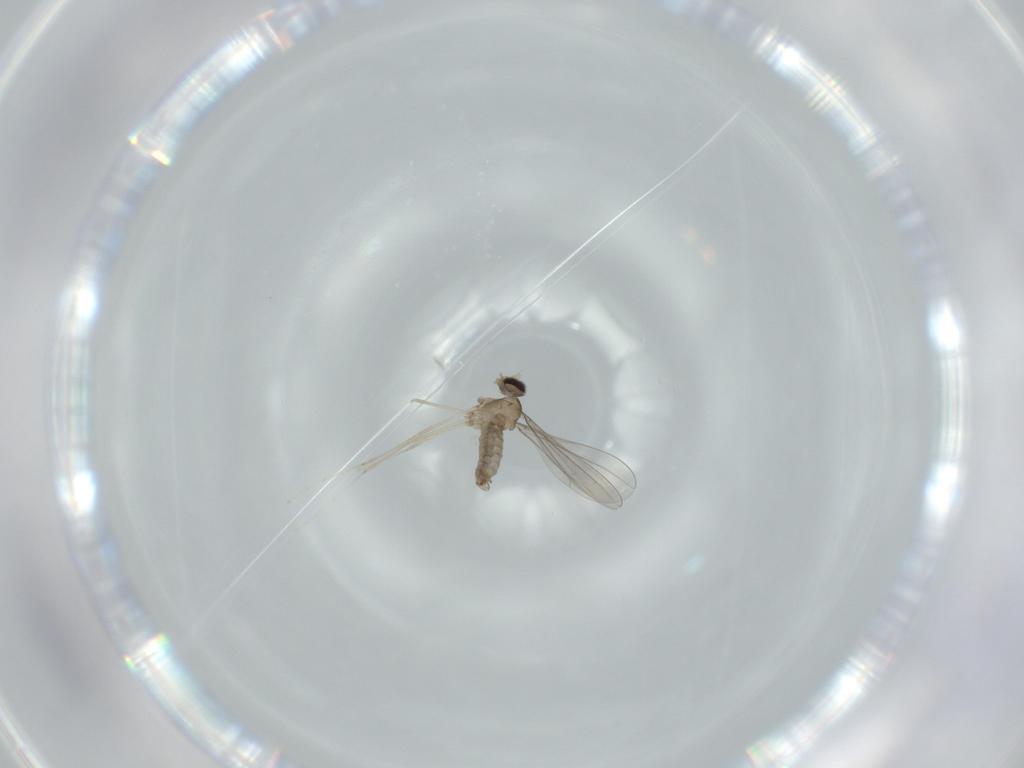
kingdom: Animalia
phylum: Arthropoda
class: Insecta
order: Diptera
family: Cecidomyiidae
